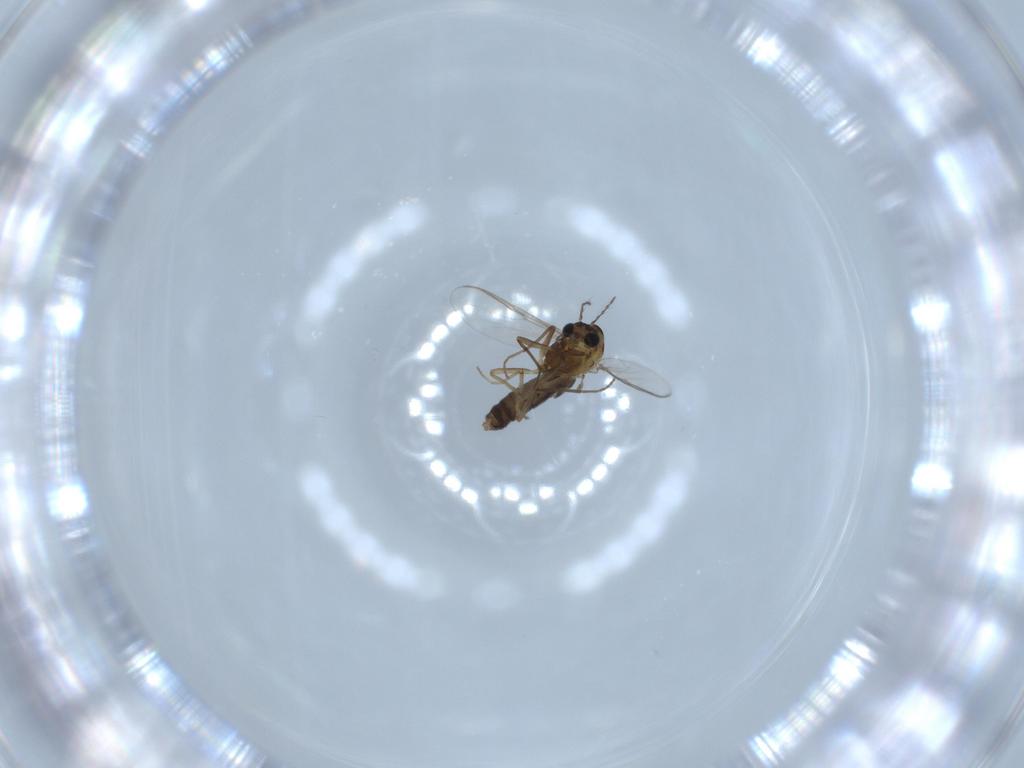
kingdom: Animalia
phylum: Arthropoda
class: Insecta
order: Diptera
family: Chironomidae
